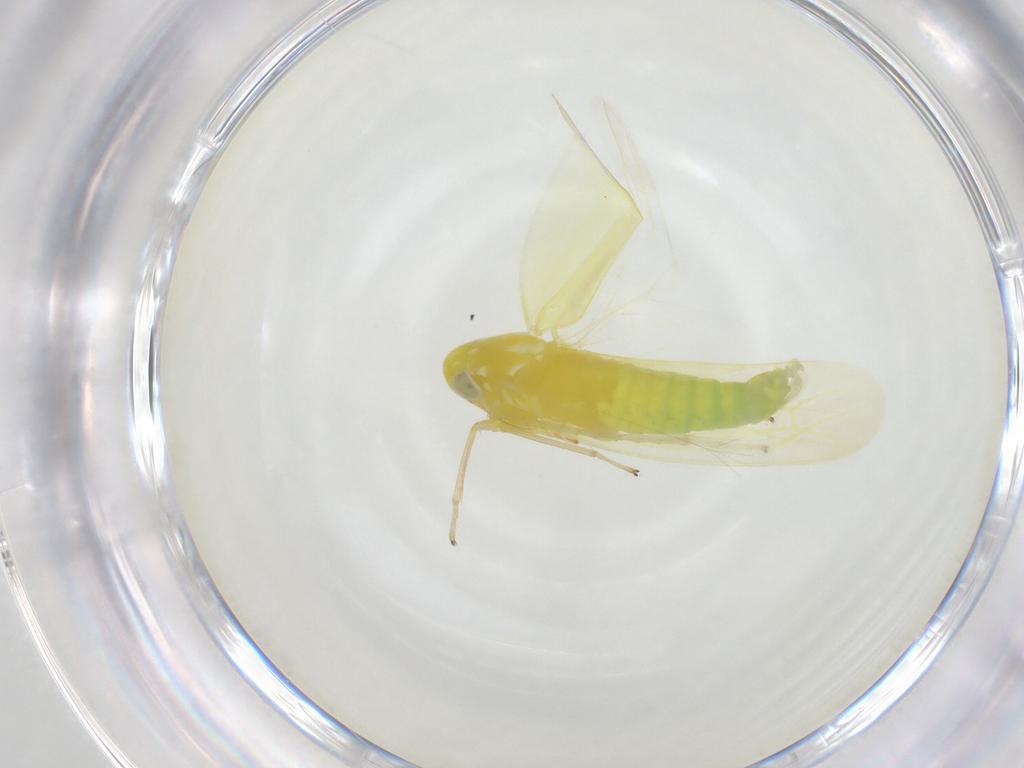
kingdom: Animalia
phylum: Arthropoda
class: Insecta
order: Hemiptera
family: Cicadellidae
